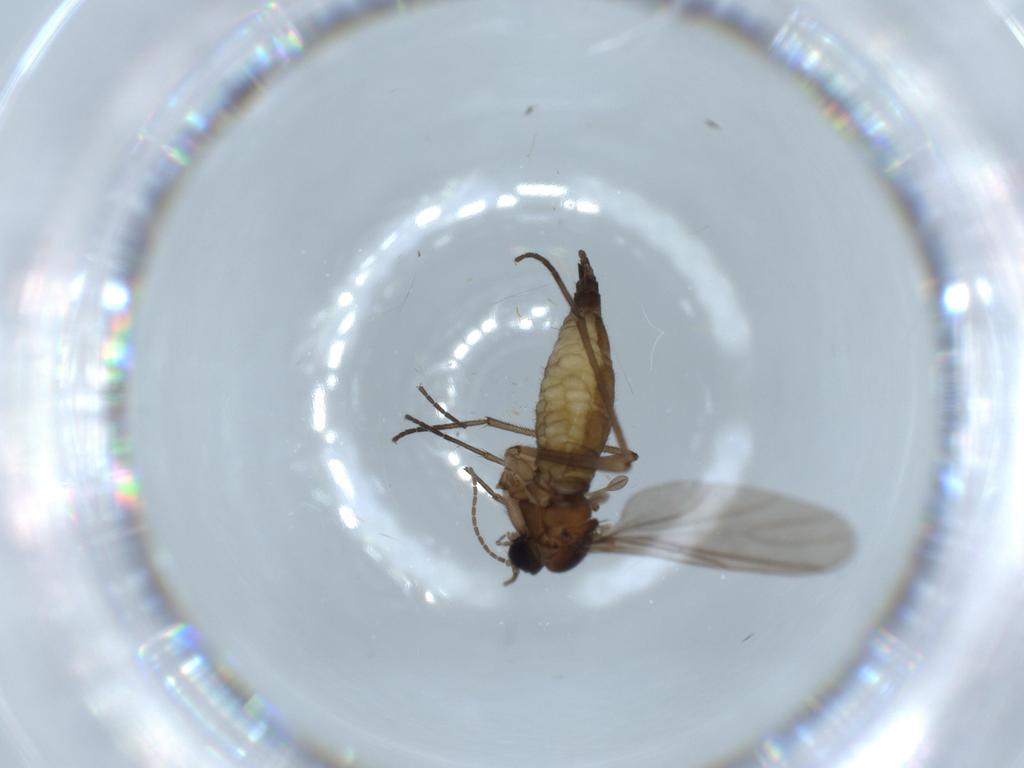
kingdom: Animalia
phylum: Arthropoda
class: Insecta
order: Diptera
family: Sciaridae
